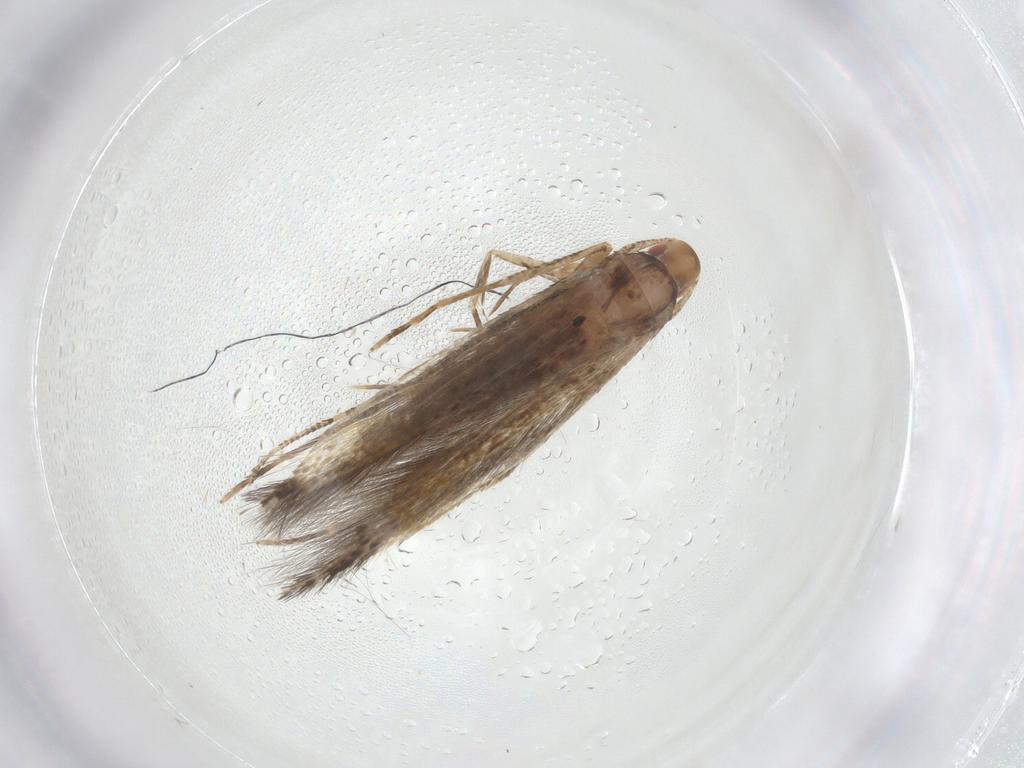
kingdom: Animalia
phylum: Arthropoda
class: Insecta
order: Lepidoptera
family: Cosmopterigidae
